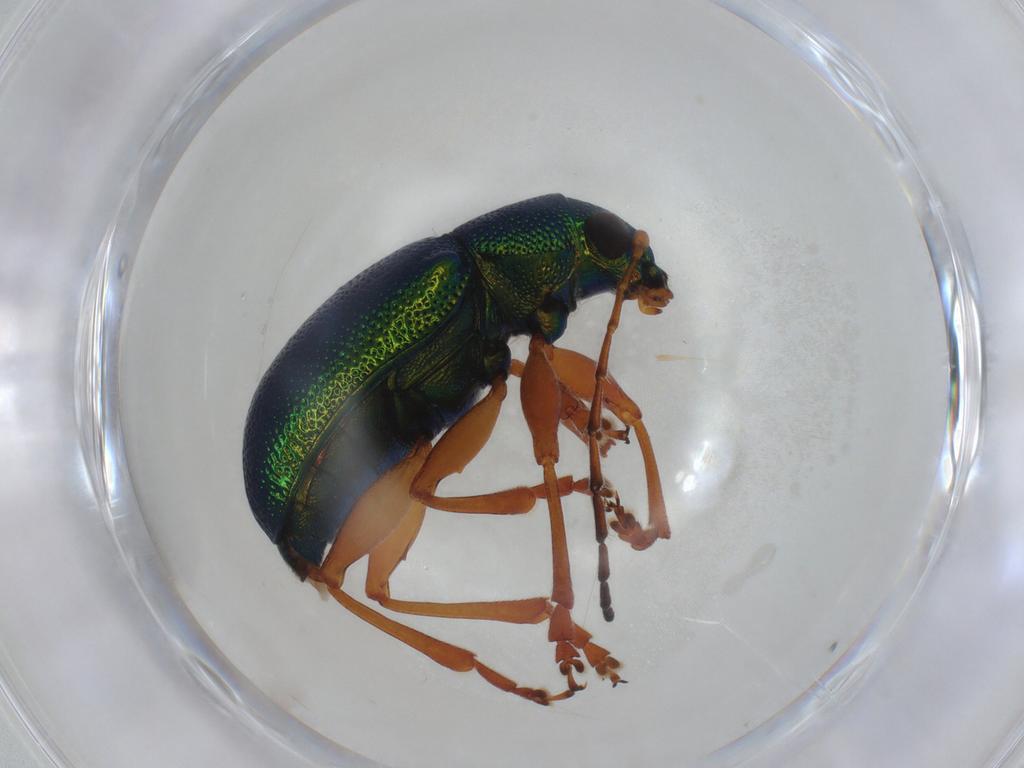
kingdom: Animalia
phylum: Arthropoda
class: Insecta
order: Coleoptera
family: Chrysomelidae
